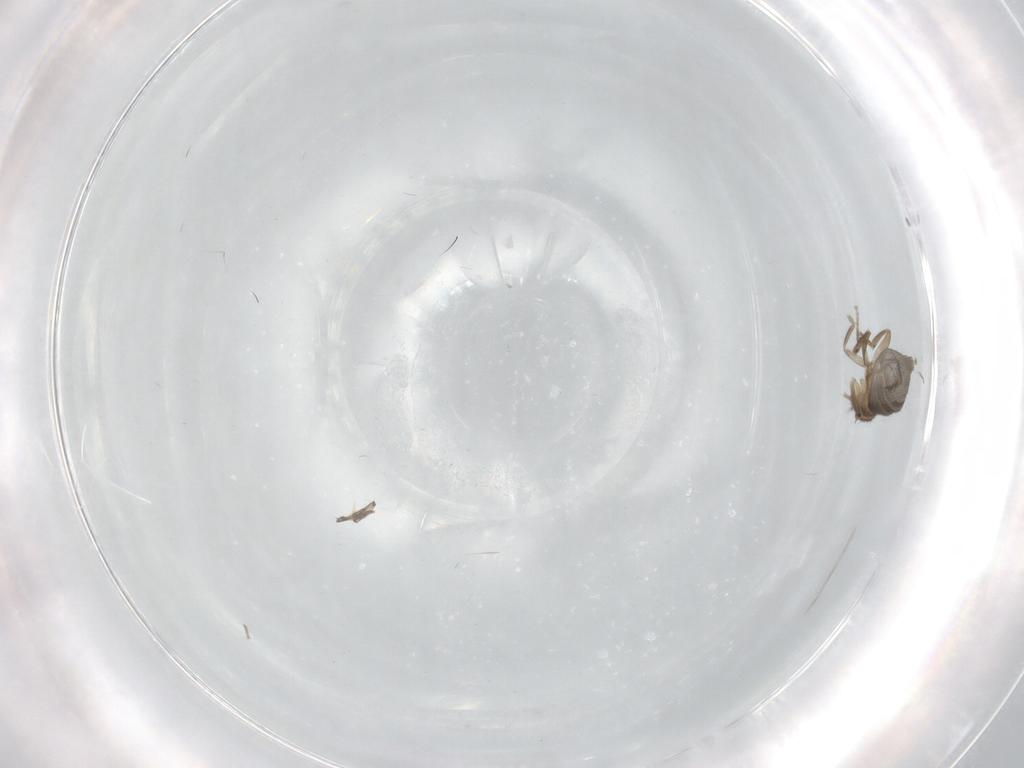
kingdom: Animalia
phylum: Arthropoda
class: Insecta
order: Diptera
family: Phoridae
